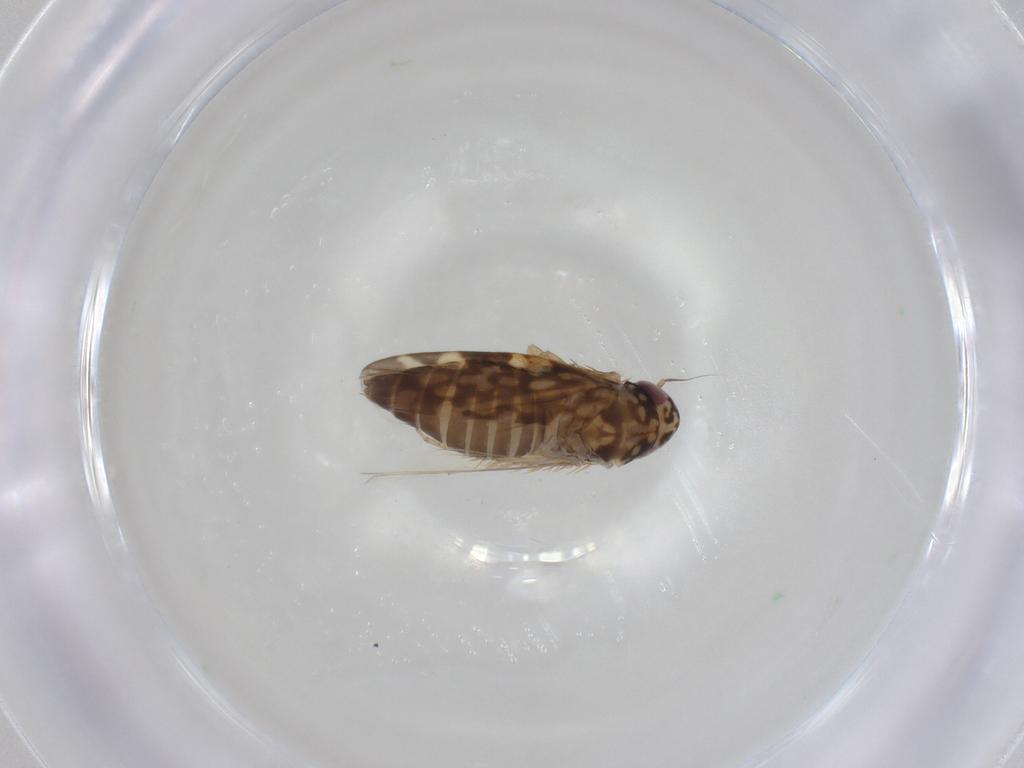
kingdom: Animalia
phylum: Arthropoda
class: Insecta
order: Hemiptera
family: Cicadellidae
